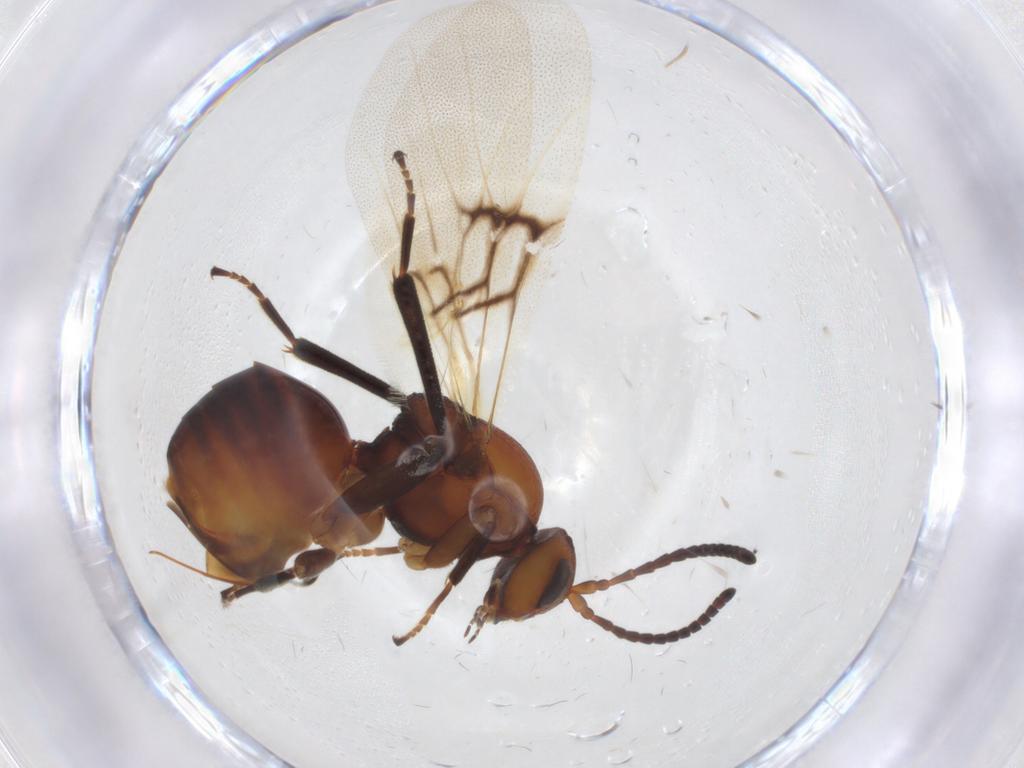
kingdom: Animalia
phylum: Arthropoda
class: Insecta
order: Hymenoptera
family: Cynipidae
